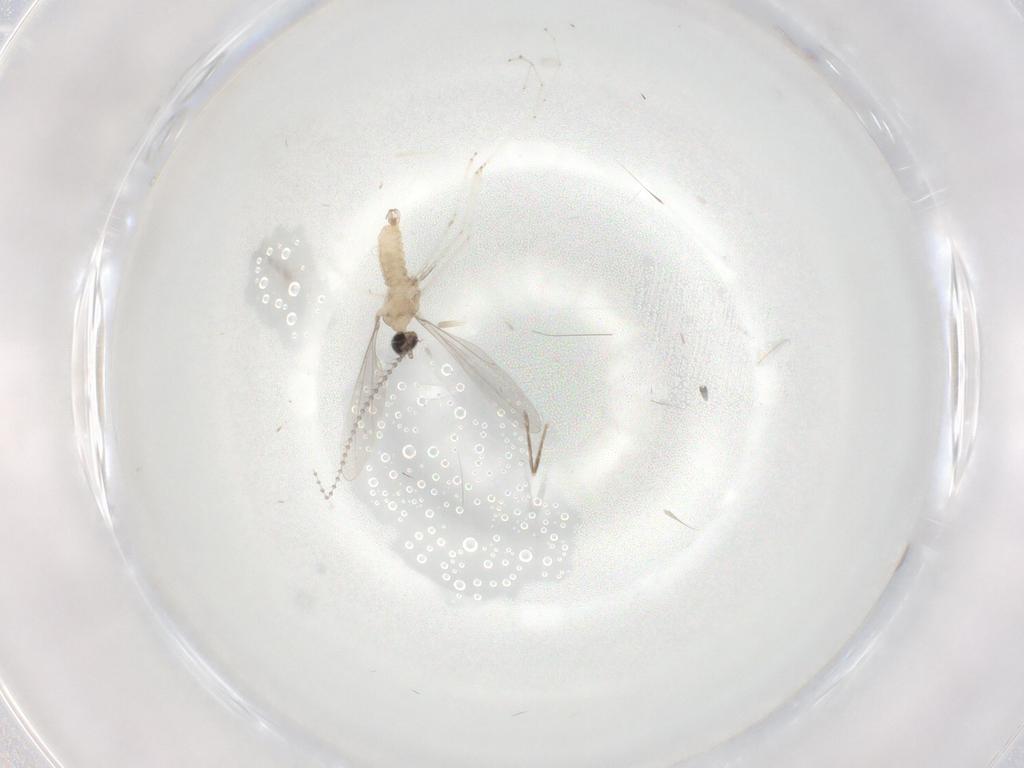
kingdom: Animalia
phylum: Arthropoda
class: Insecta
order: Diptera
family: Cecidomyiidae
